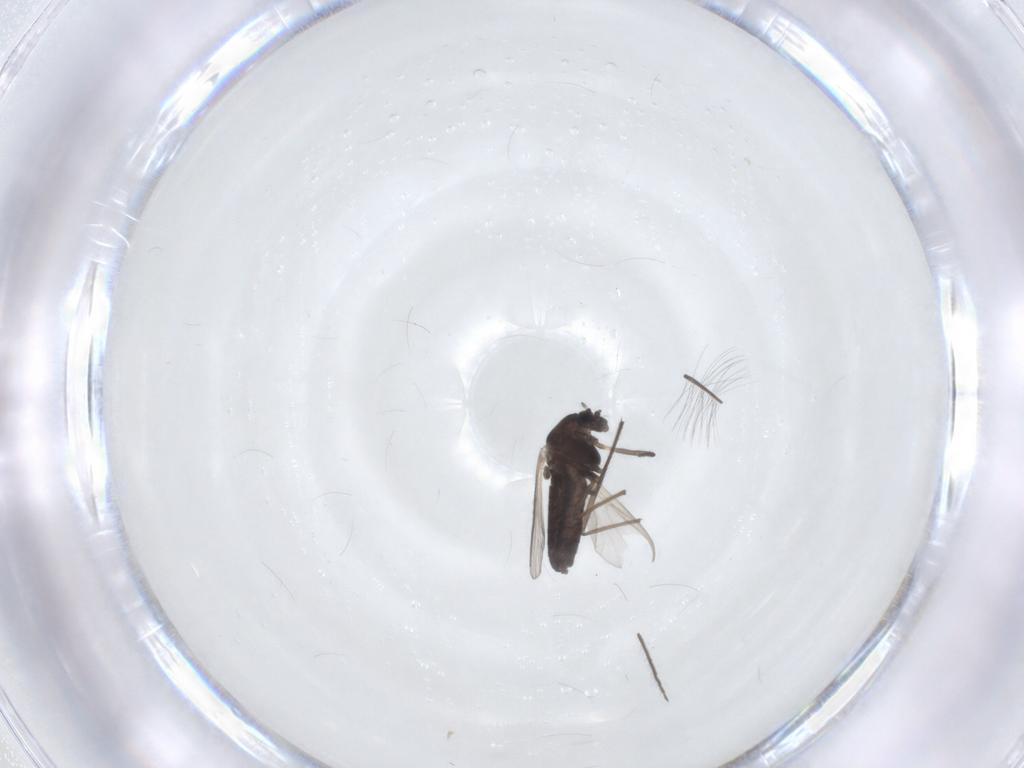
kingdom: Animalia
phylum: Arthropoda
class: Insecta
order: Diptera
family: Chironomidae
